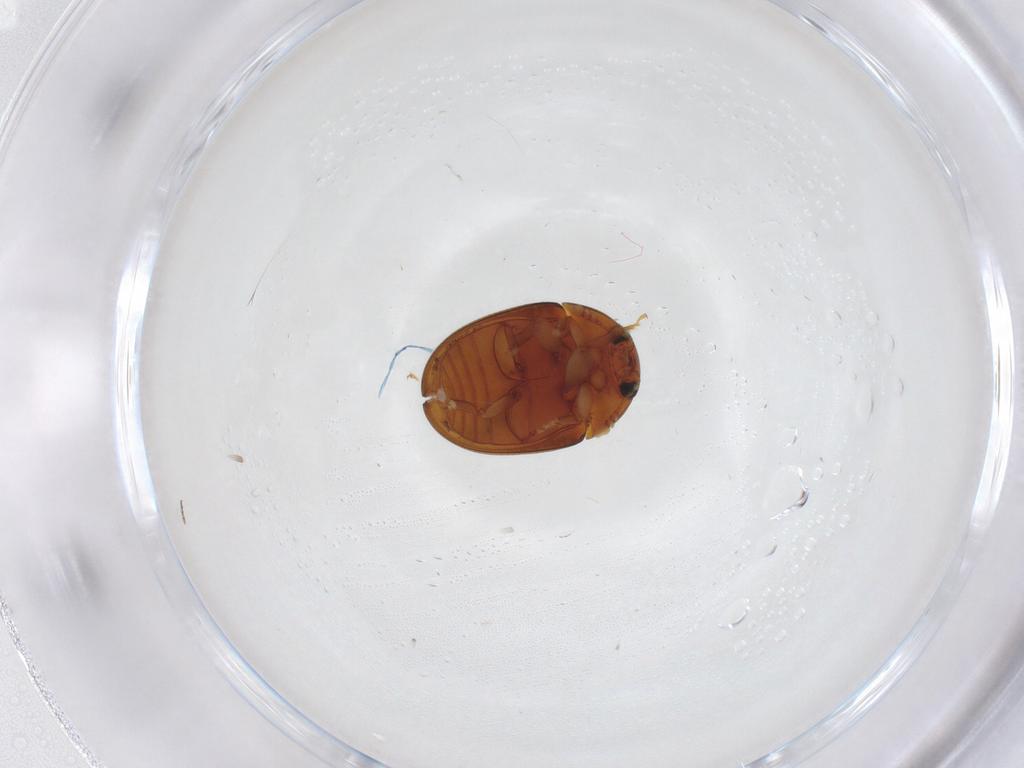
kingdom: Animalia
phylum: Arthropoda
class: Insecta
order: Coleoptera
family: Phalacridae
